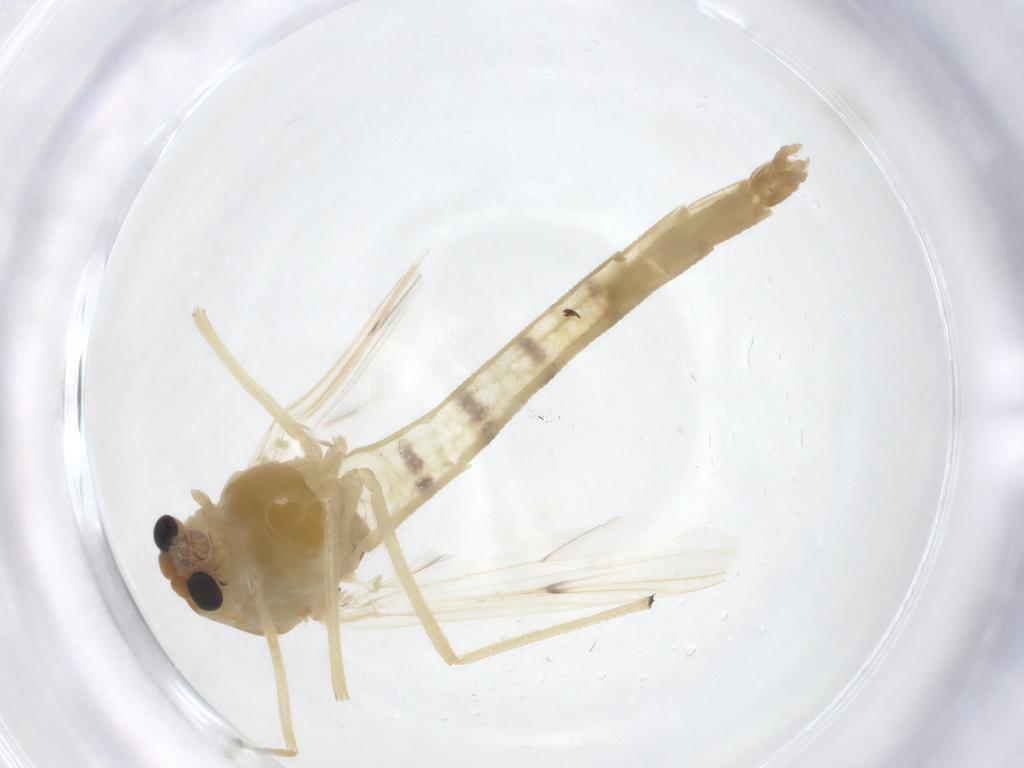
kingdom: Animalia
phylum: Arthropoda
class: Insecta
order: Diptera
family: Chironomidae
